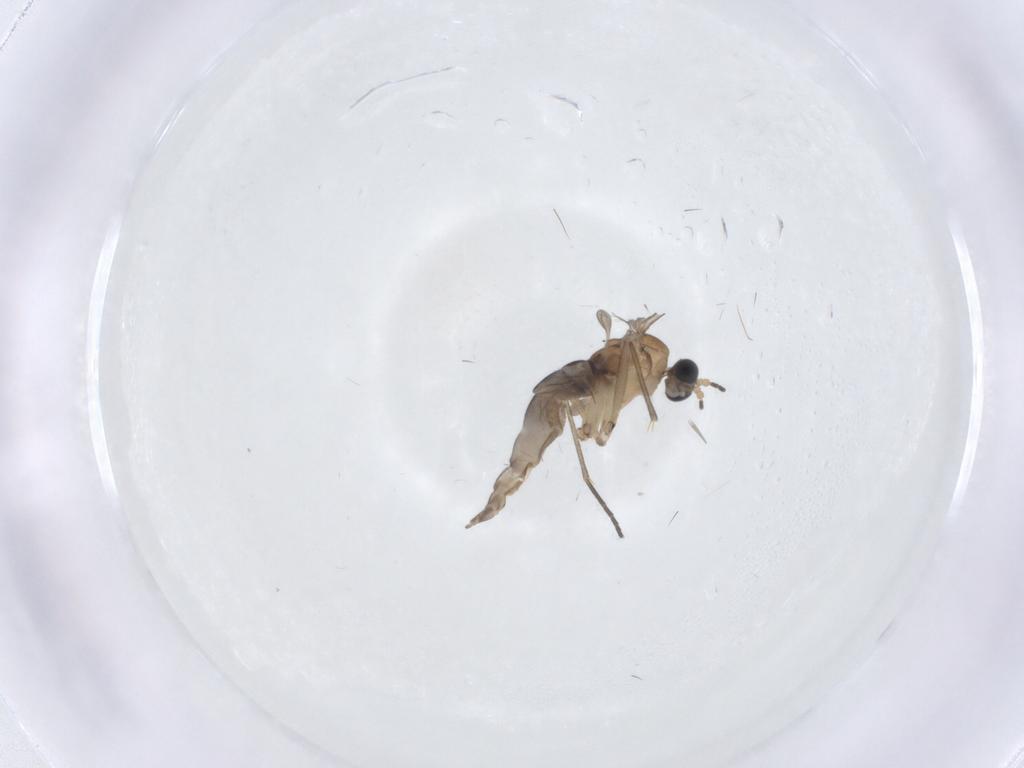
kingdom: Animalia
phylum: Arthropoda
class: Insecta
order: Diptera
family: Sciaridae
